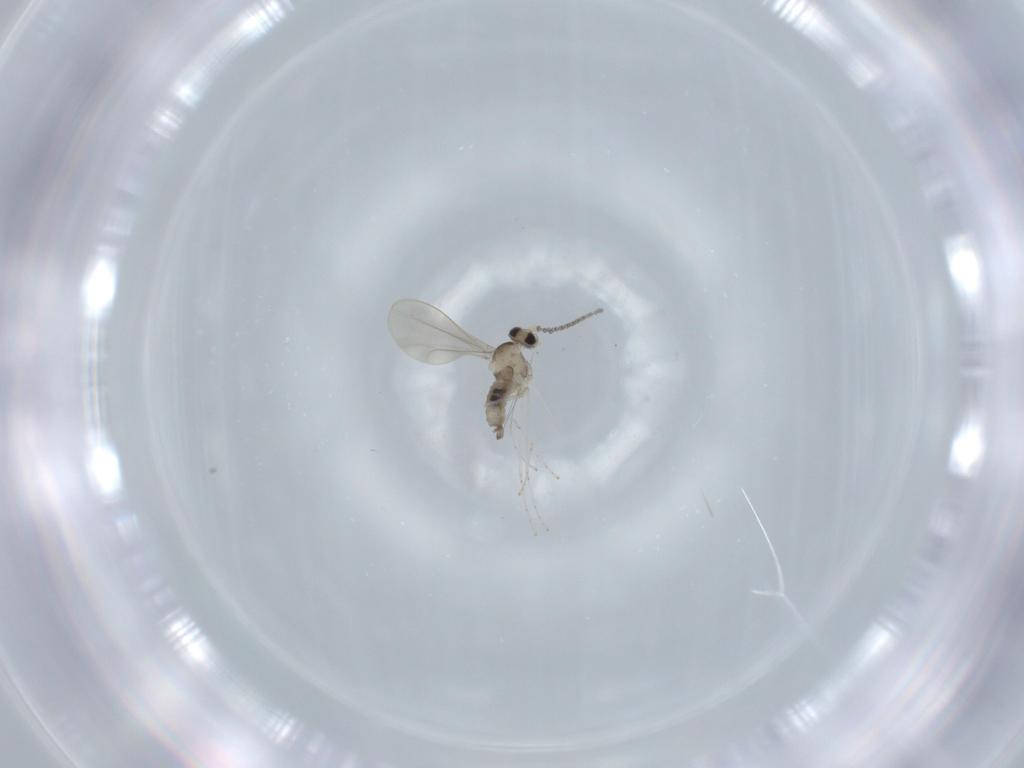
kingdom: Animalia
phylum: Arthropoda
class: Insecta
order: Diptera
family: Cecidomyiidae
